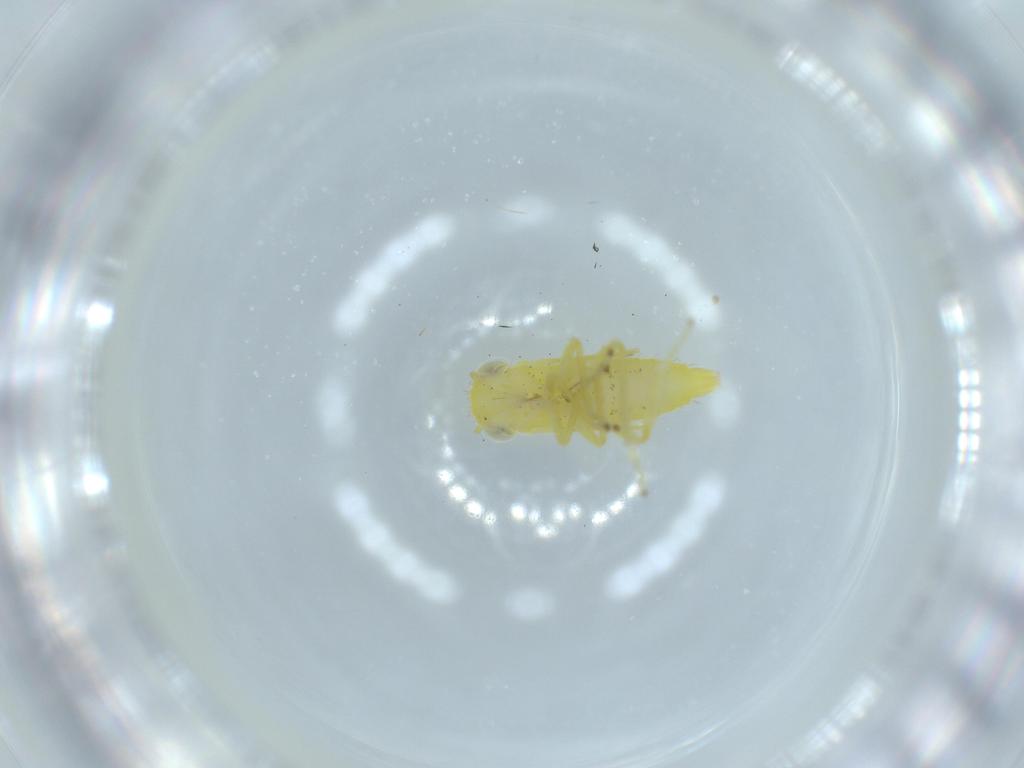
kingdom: Animalia
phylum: Arthropoda
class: Insecta
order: Hemiptera
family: Cicadellidae
